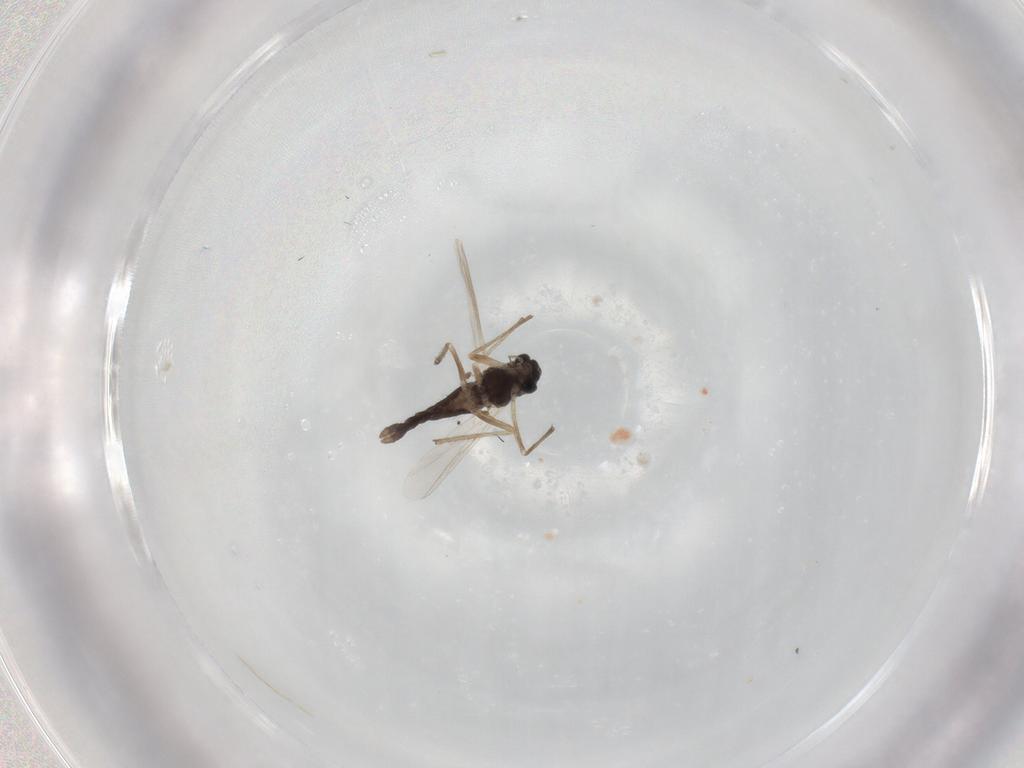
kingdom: Animalia
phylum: Arthropoda
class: Insecta
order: Diptera
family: Chironomidae
